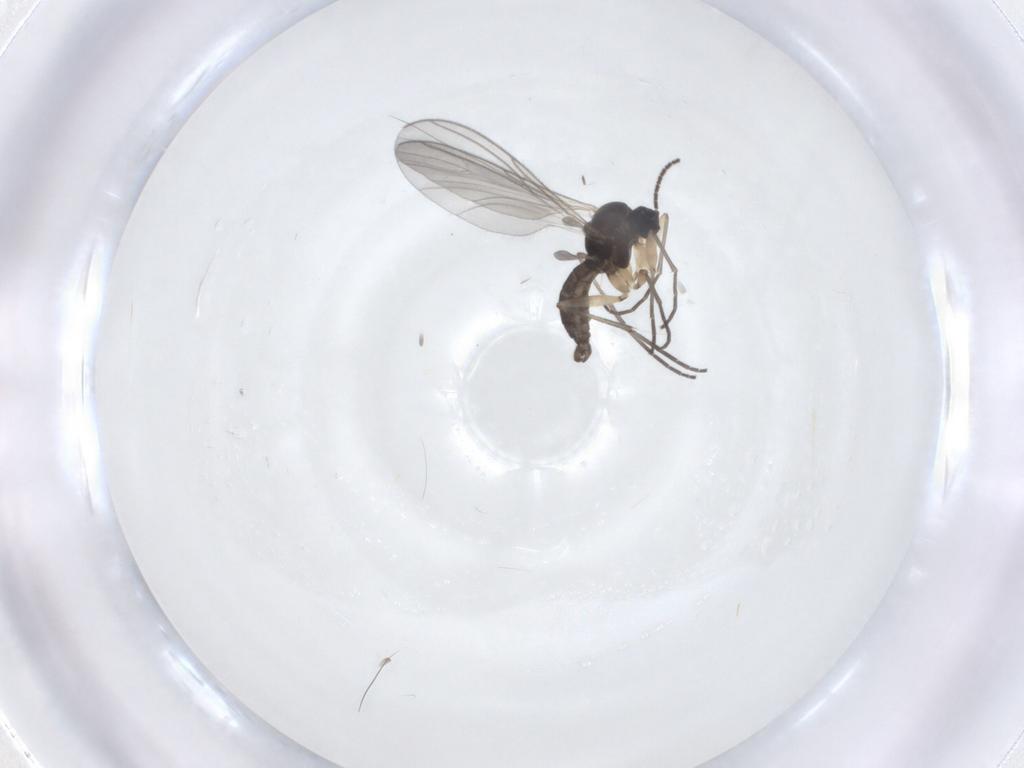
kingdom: Animalia
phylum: Arthropoda
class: Insecta
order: Diptera
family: Sciaridae
